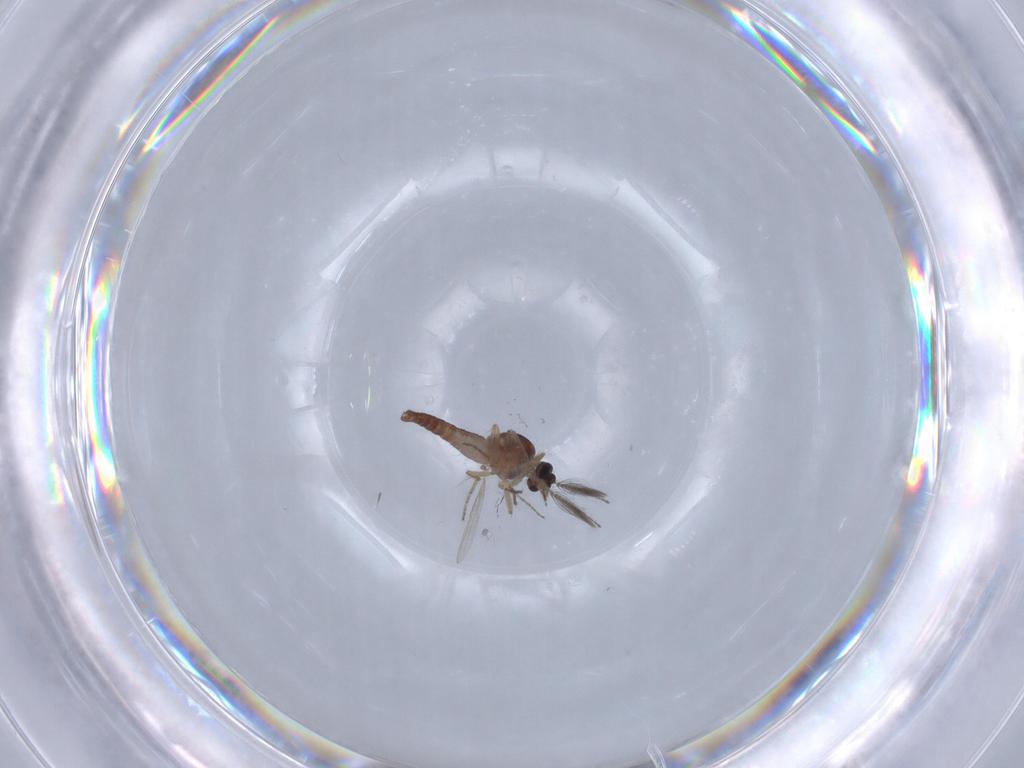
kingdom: Animalia
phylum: Arthropoda
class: Insecta
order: Diptera
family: Ceratopogonidae
